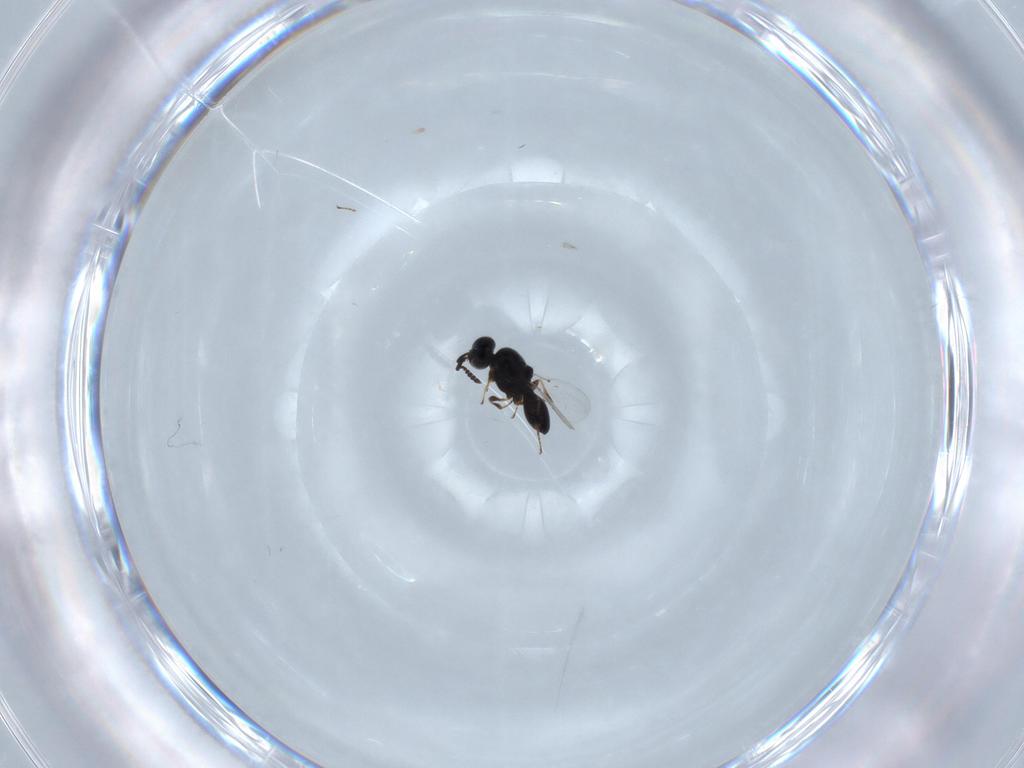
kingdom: Animalia
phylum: Arthropoda
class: Insecta
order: Hymenoptera
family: Platygastridae
